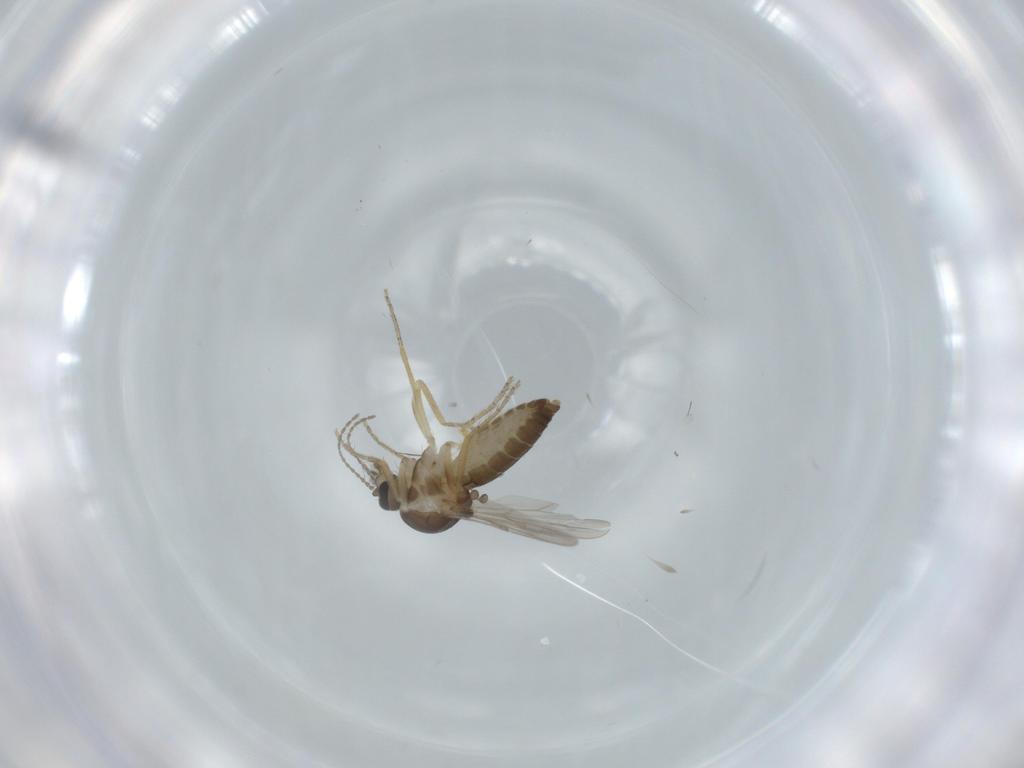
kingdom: Animalia
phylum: Arthropoda
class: Insecta
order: Diptera
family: Ceratopogonidae
